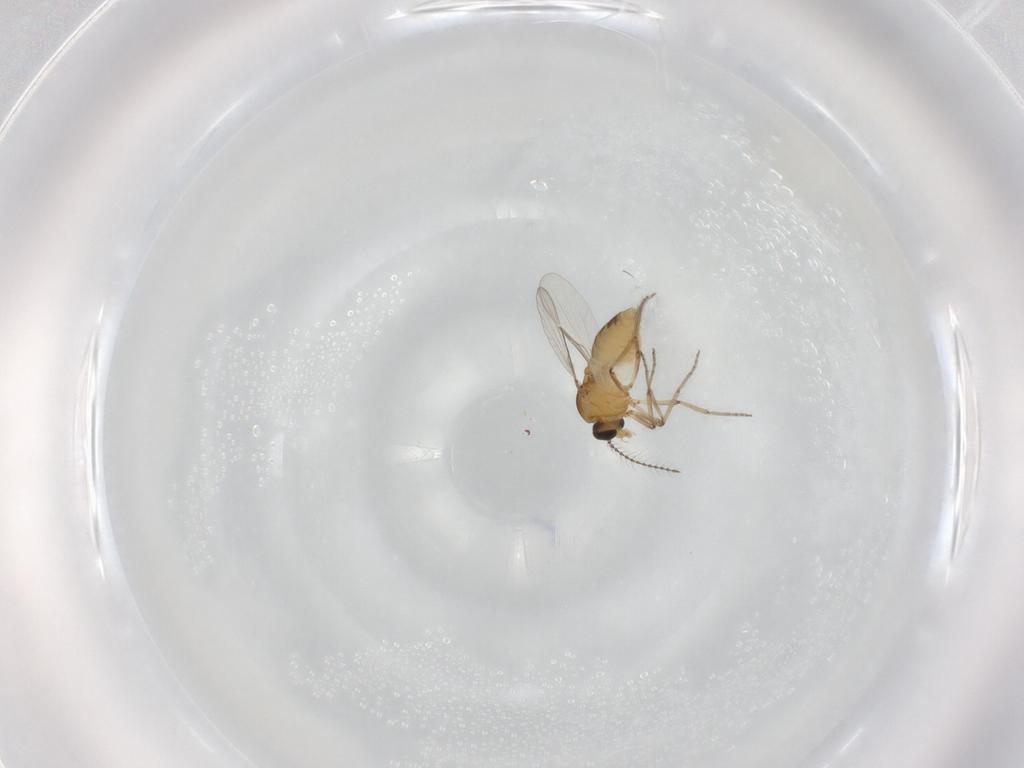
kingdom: Animalia
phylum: Arthropoda
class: Insecta
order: Diptera
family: Ceratopogonidae
